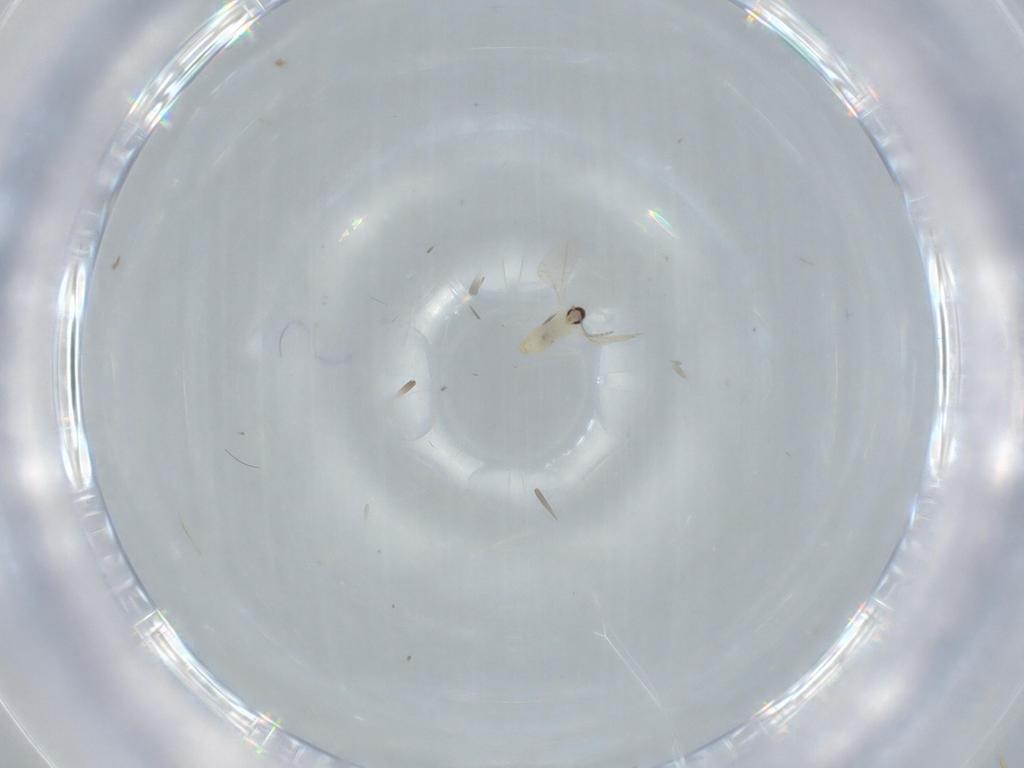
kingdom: Animalia
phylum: Arthropoda
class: Insecta
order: Diptera
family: Cecidomyiidae
